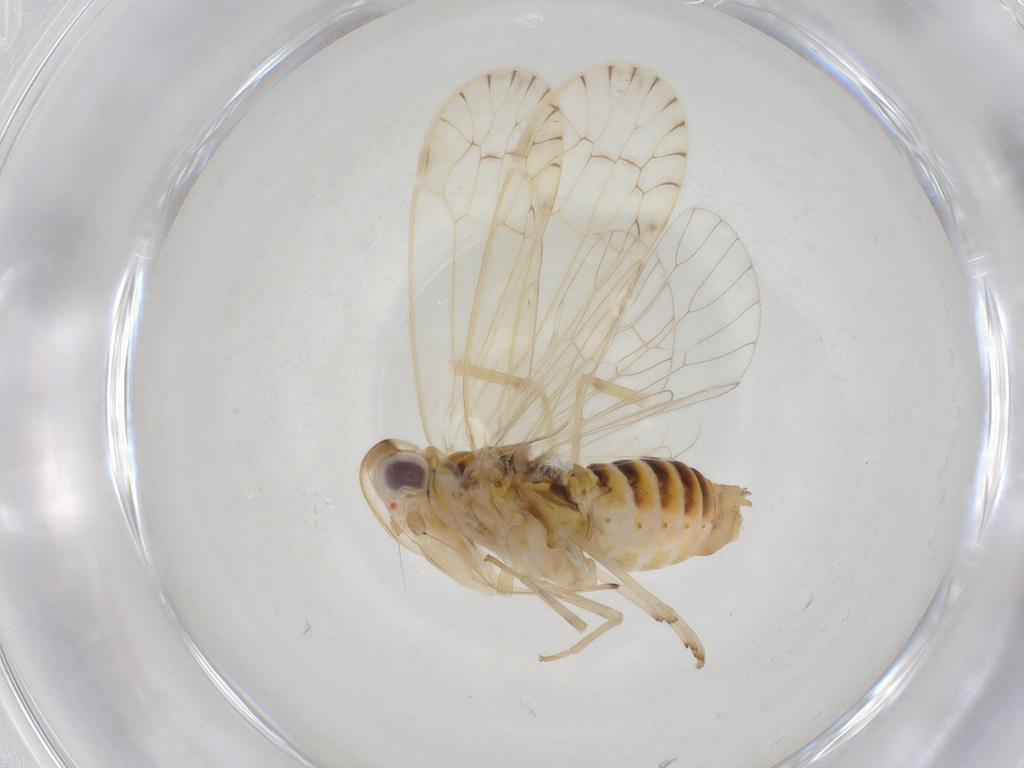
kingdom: Animalia
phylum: Arthropoda
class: Insecta
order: Hemiptera
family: Kinnaridae
